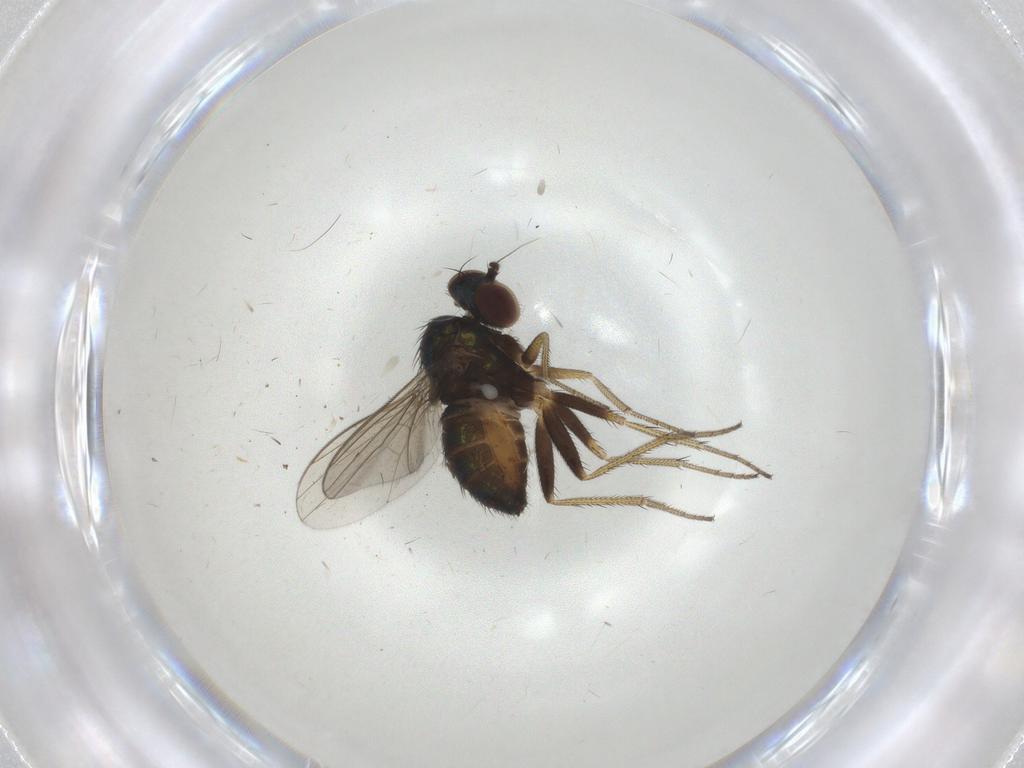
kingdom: Animalia
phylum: Arthropoda
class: Insecta
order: Diptera
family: Dolichopodidae
